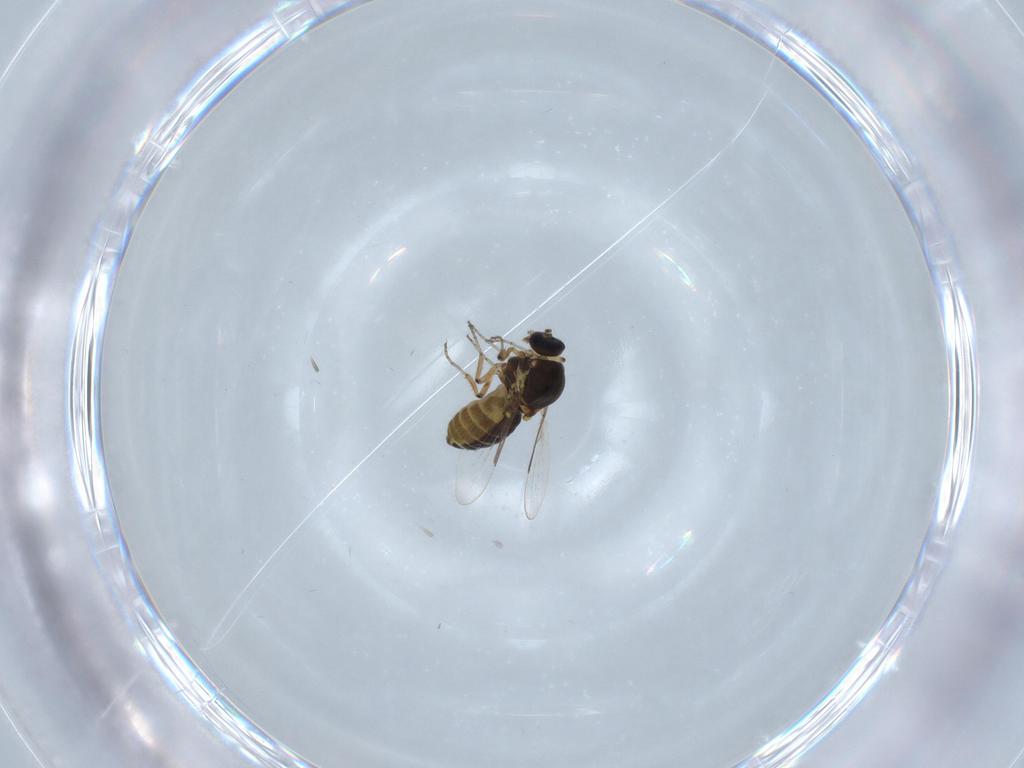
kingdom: Animalia
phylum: Arthropoda
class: Insecta
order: Diptera
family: Ceratopogonidae
